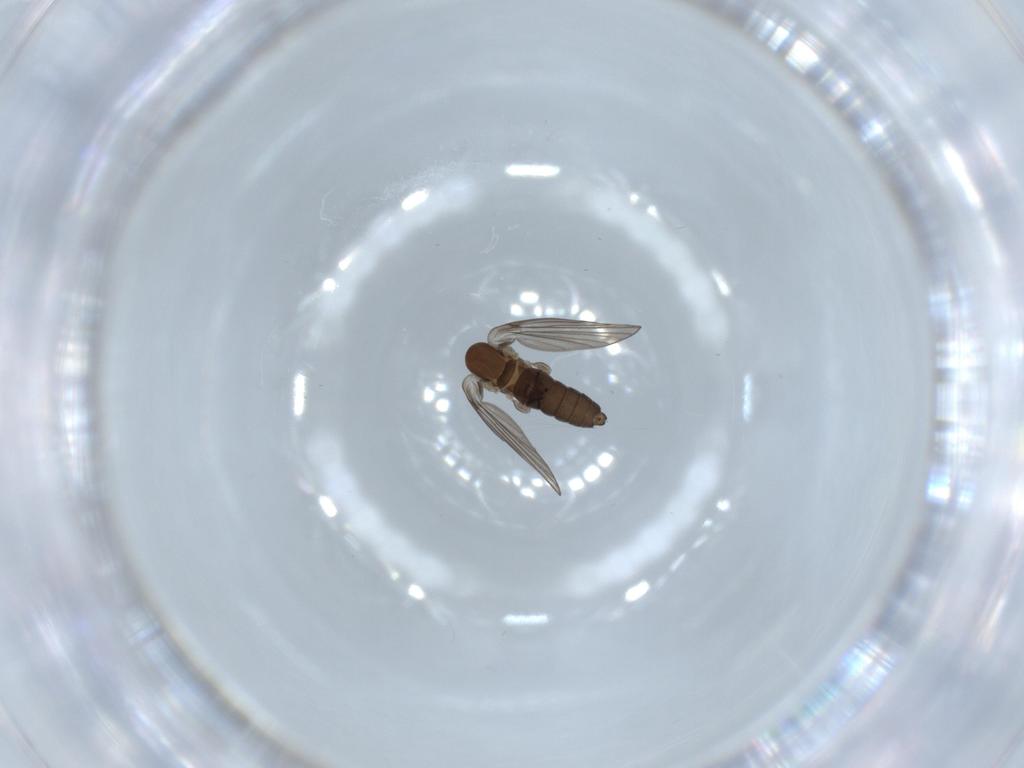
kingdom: Animalia
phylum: Arthropoda
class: Insecta
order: Diptera
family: Psychodidae
